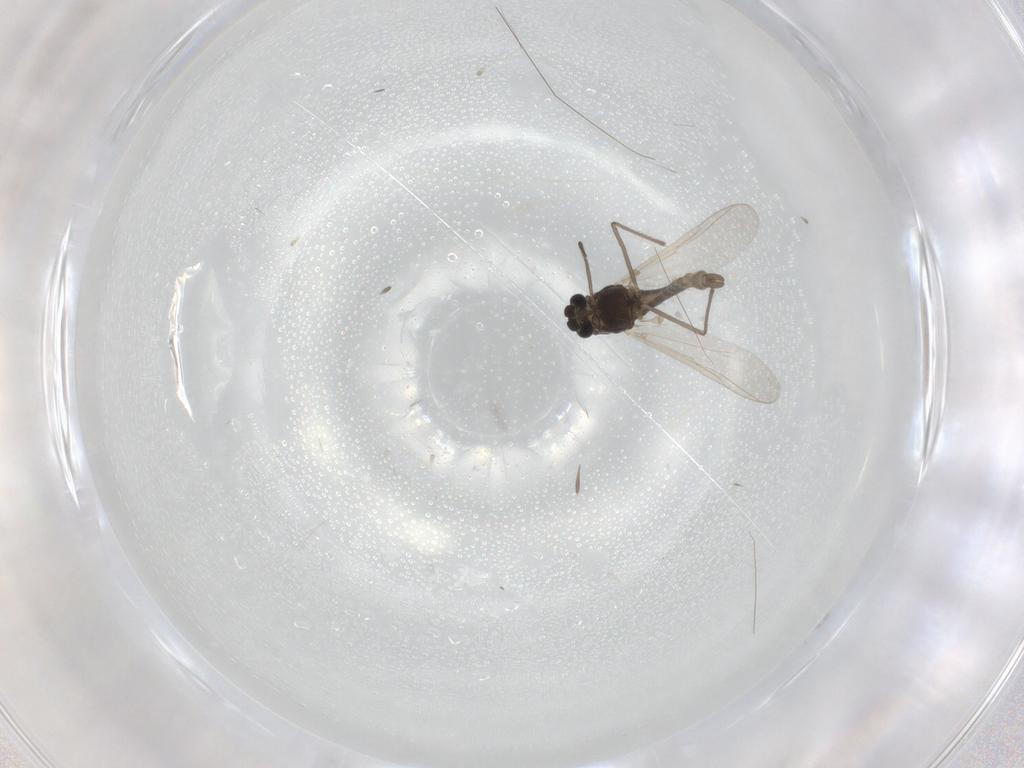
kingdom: Animalia
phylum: Arthropoda
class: Insecta
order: Diptera
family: Chironomidae
